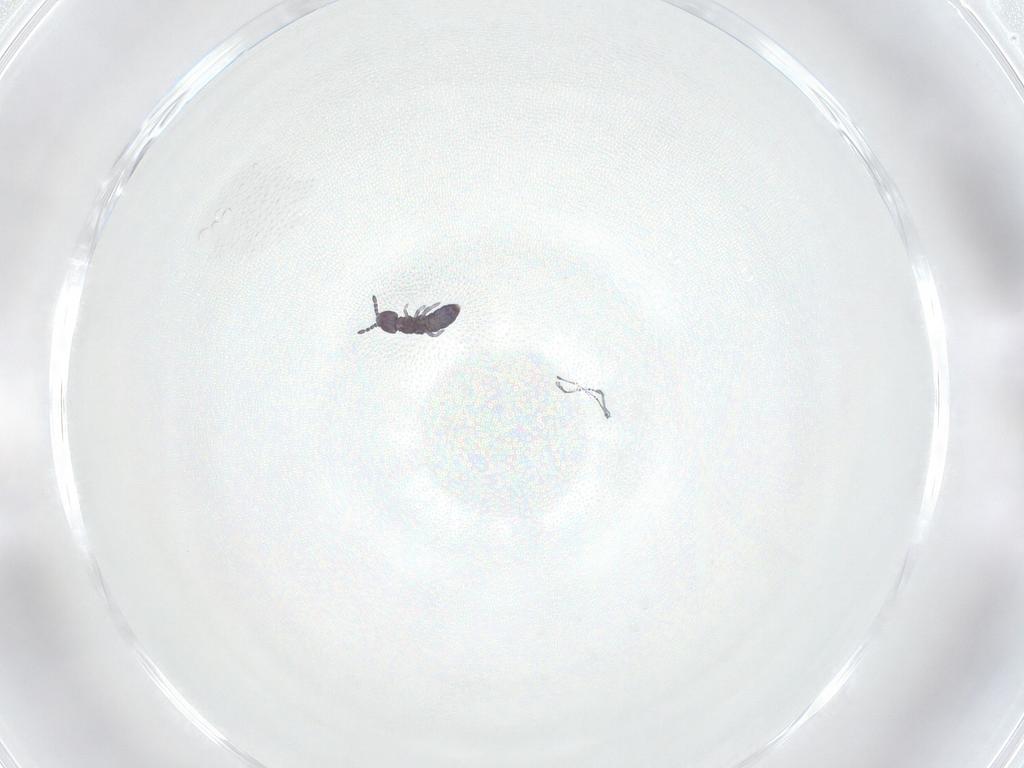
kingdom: Animalia
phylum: Arthropoda
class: Collembola
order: Entomobryomorpha
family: Isotomidae
